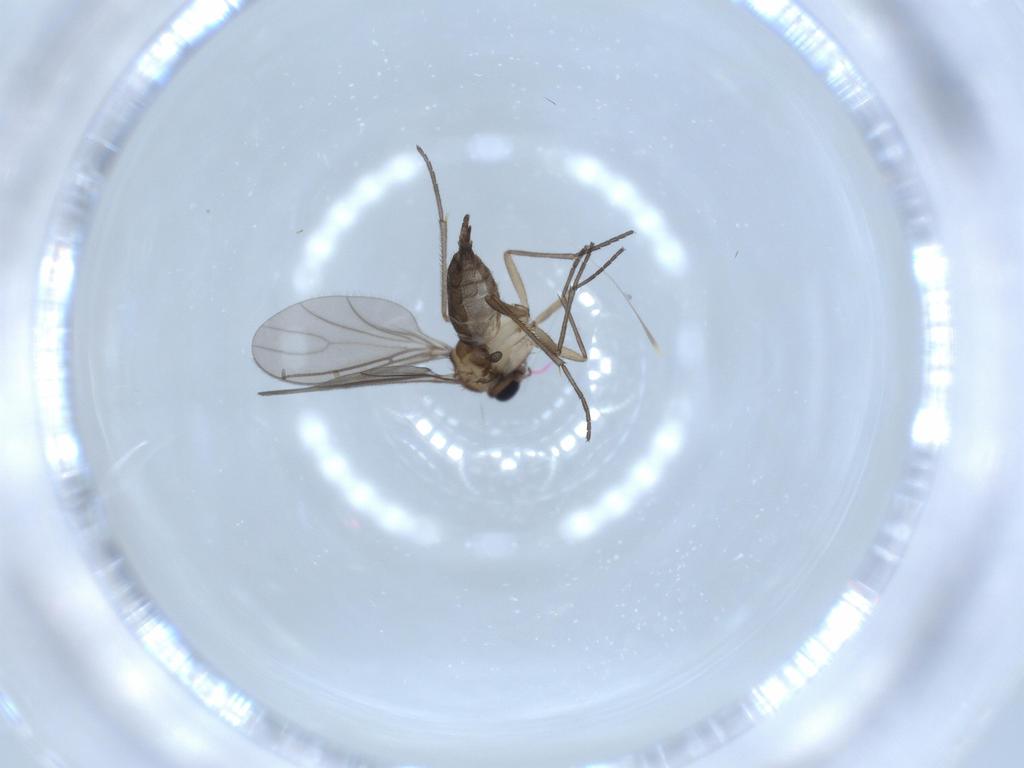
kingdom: Animalia
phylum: Arthropoda
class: Insecta
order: Diptera
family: Sciaridae
